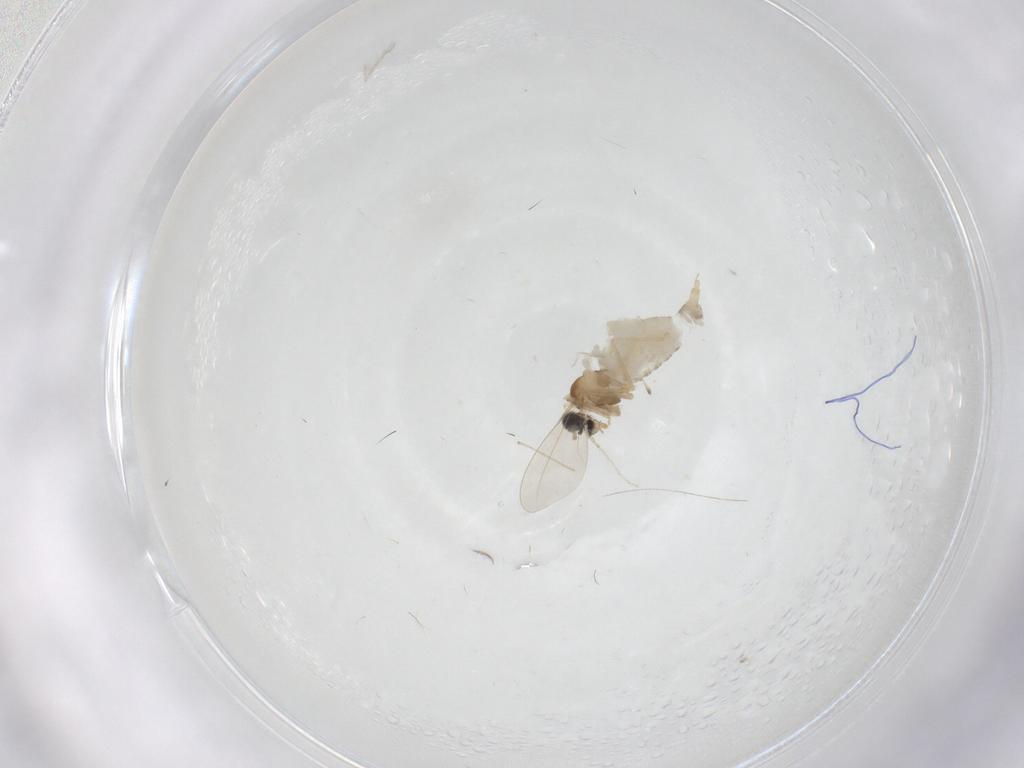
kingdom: Animalia
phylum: Arthropoda
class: Insecta
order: Diptera
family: Cecidomyiidae
